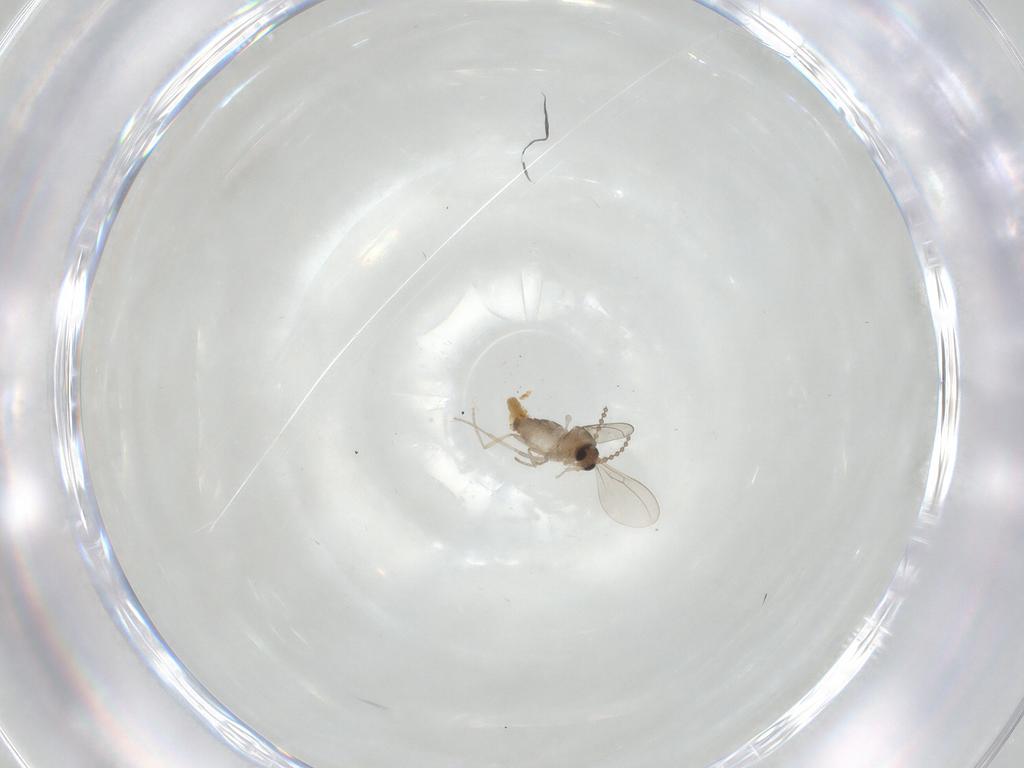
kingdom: Animalia
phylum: Arthropoda
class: Insecta
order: Diptera
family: Cecidomyiidae
